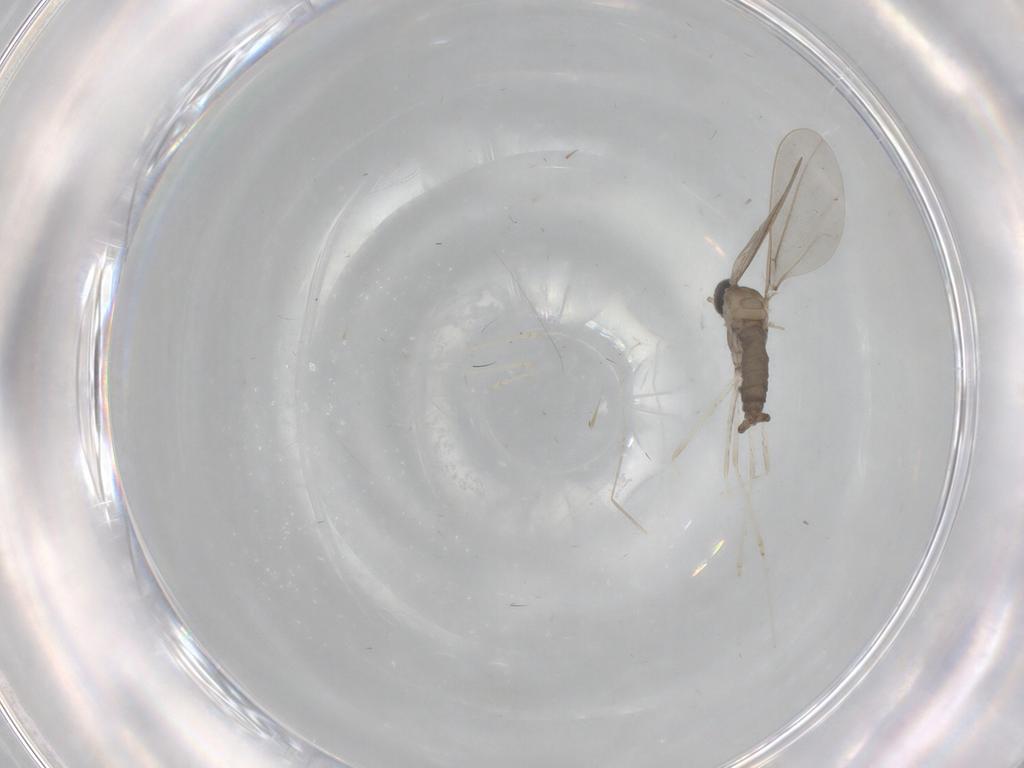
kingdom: Animalia
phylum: Arthropoda
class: Insecta
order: Diptera
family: Cecidomyiidae
